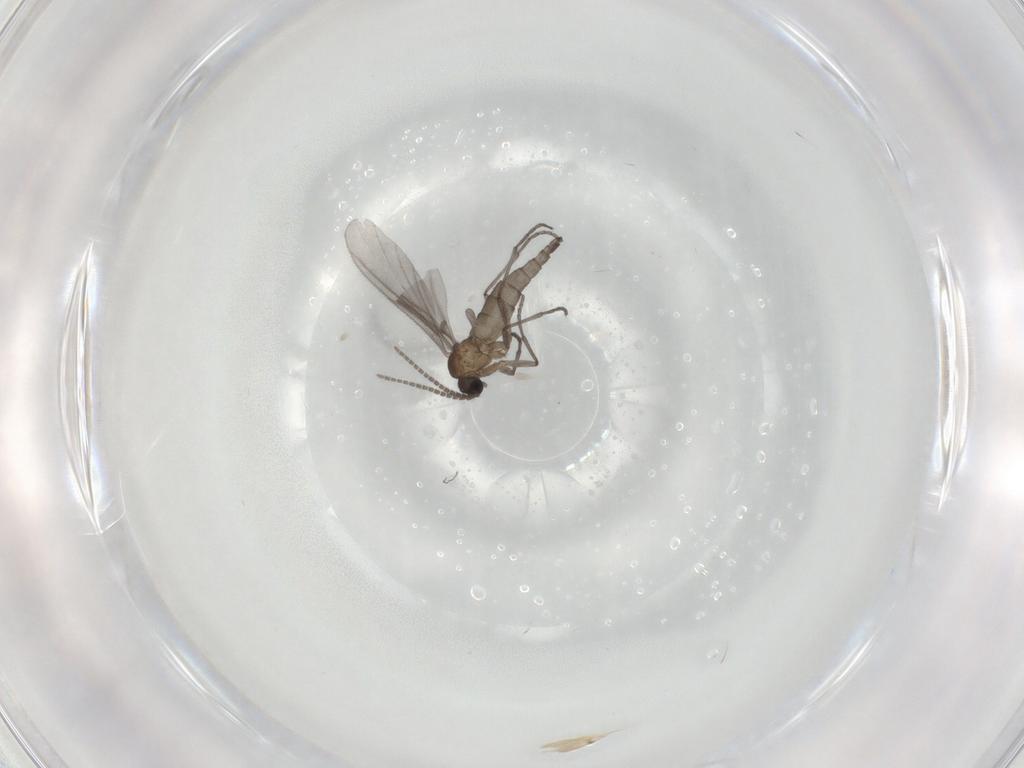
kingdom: Animalia
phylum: Arthropoda
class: Insecta
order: Diptera
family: Sciaridae
